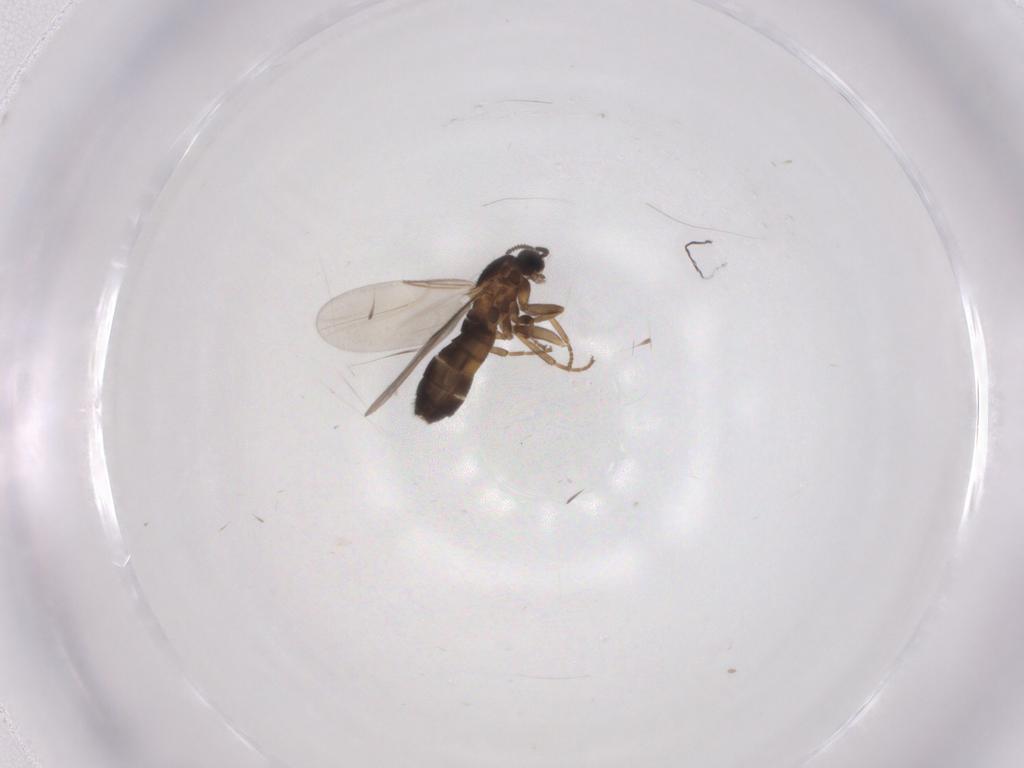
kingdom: Animalia
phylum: Arthropoda
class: Insecta
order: Diptera
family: Scatopsidae
